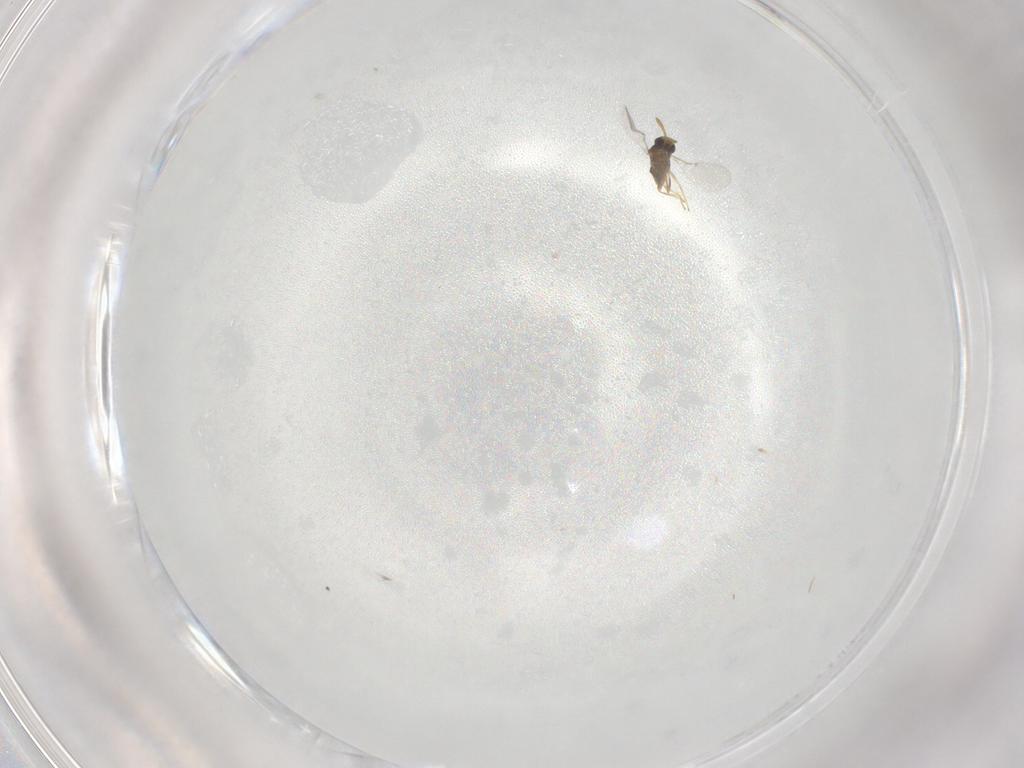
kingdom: Animalia
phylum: Arthropoda
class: Insecta
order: Hymenoptera
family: Encyrtidae
